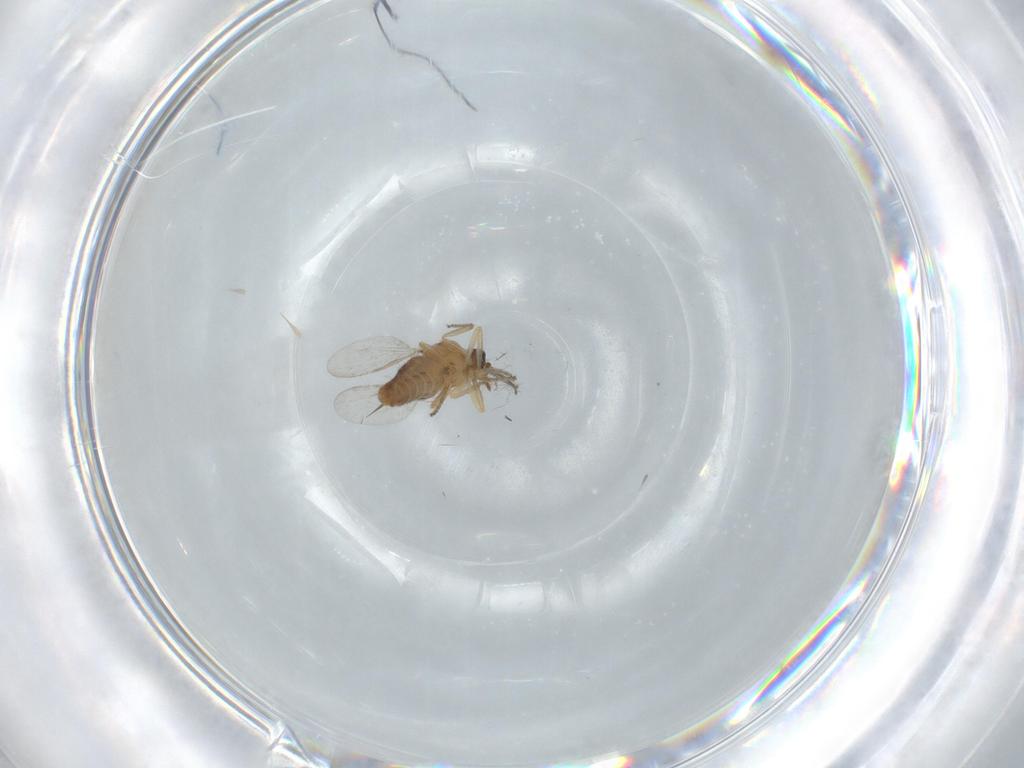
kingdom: Animalia
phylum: Arthropoda
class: Insecta
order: Diptera
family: Ceratopogonidae
